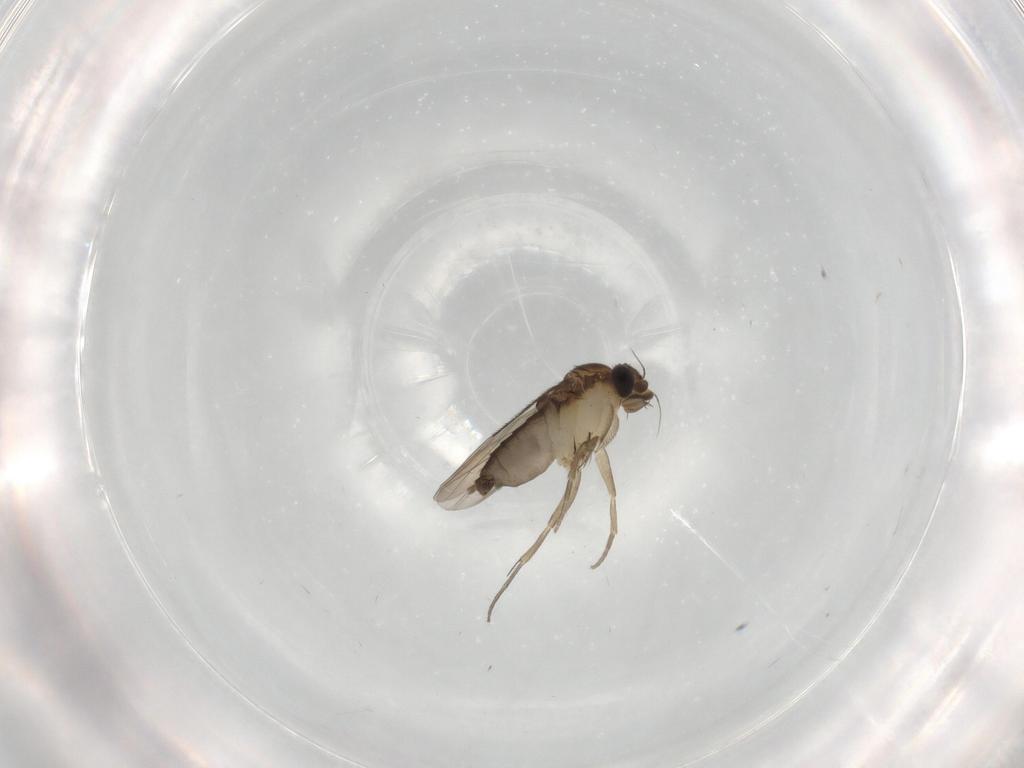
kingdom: Animalia
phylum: Arthropoda
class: Insecta
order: Diptera
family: Phoridae
